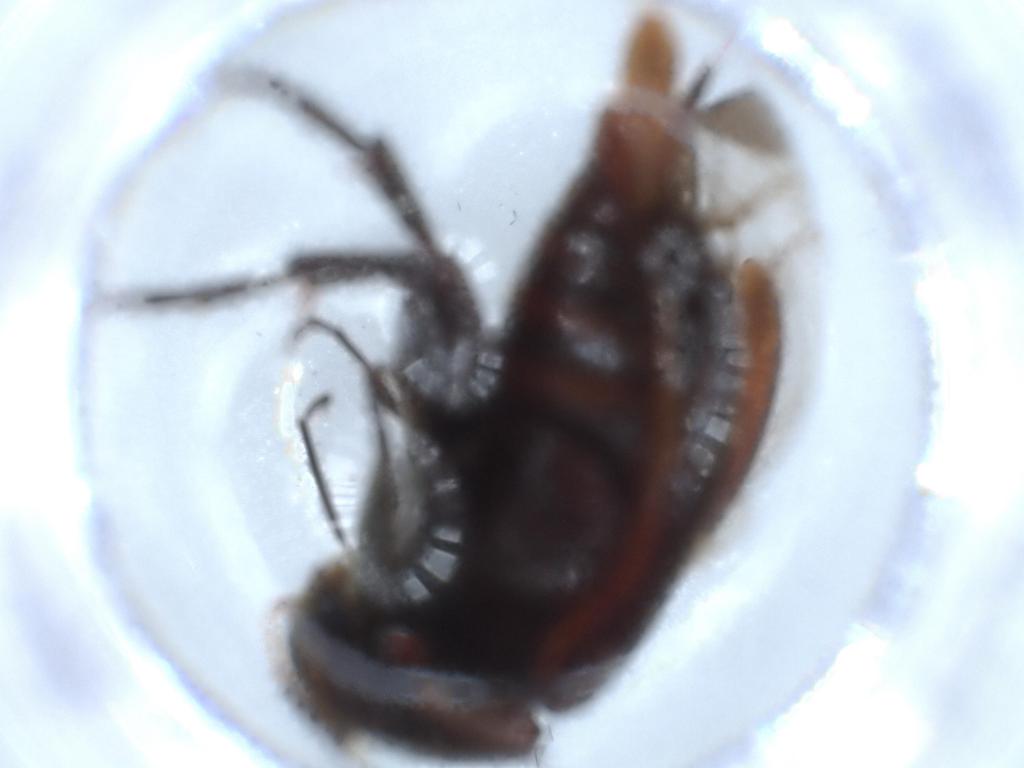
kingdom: Animalia
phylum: Arthropoda
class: Insecta
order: Coleoptera
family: Mordellidae
